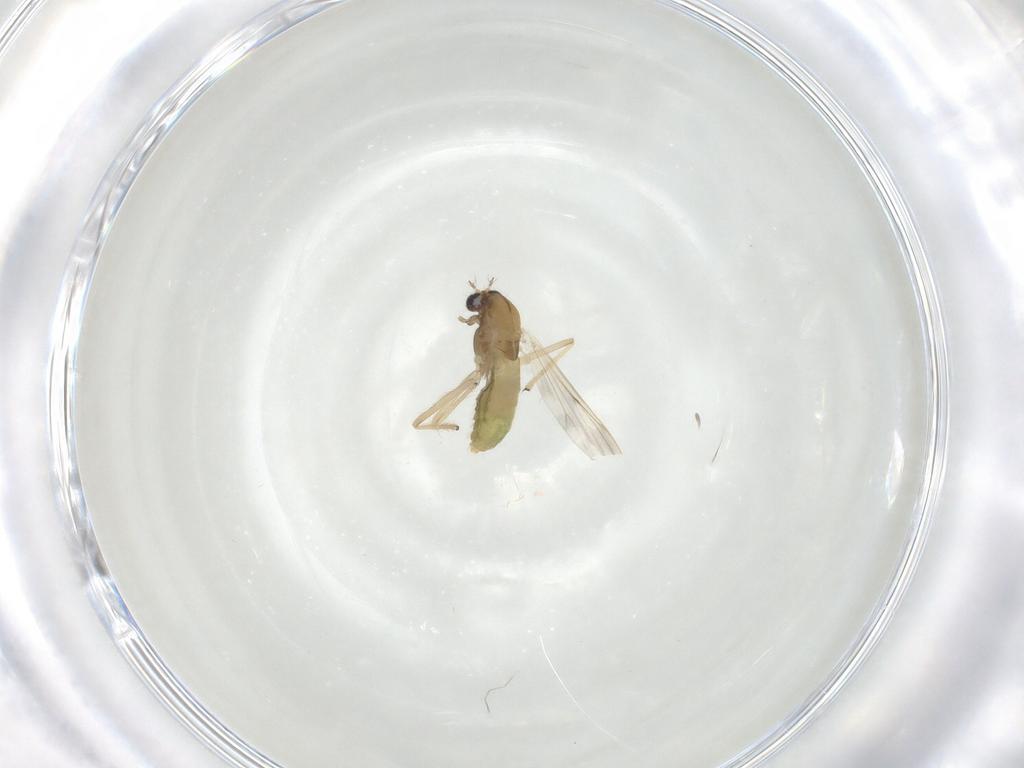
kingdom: Animalia
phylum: Arthropoda
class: Insecta
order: Diptera
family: Chironomidae
